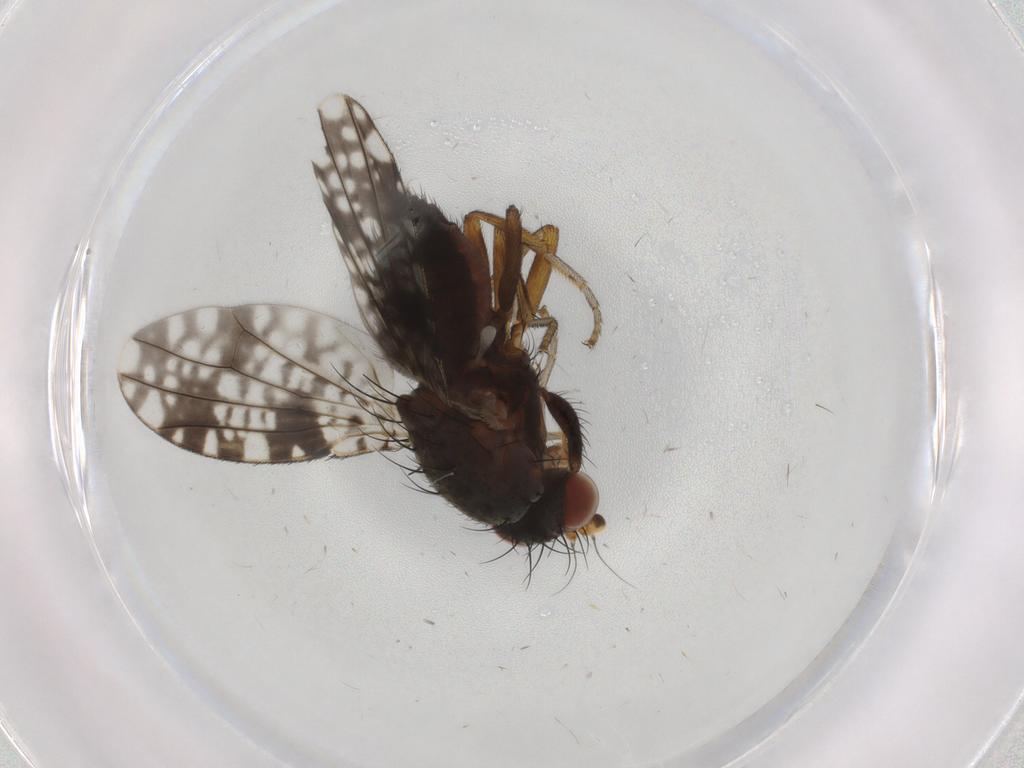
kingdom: Animalia
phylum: Arthropoda
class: Insecta
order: Diptera
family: Tephritidae
